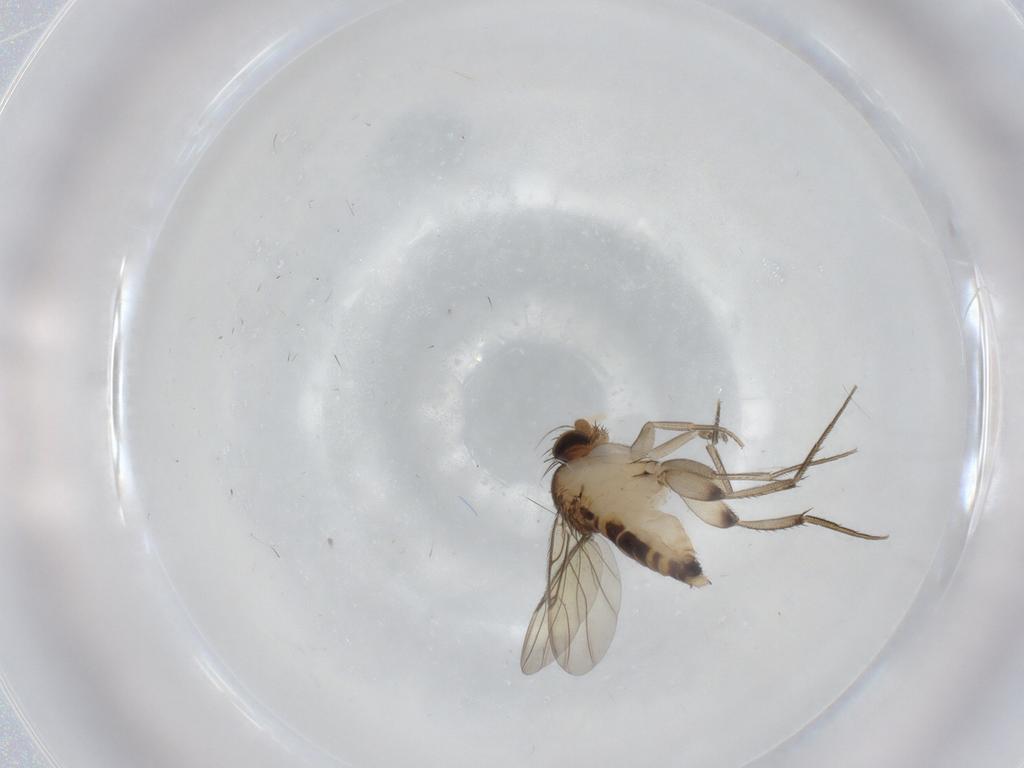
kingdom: Animalia
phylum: Arthropoda
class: Insecta
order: Diptera
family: Phoridae
